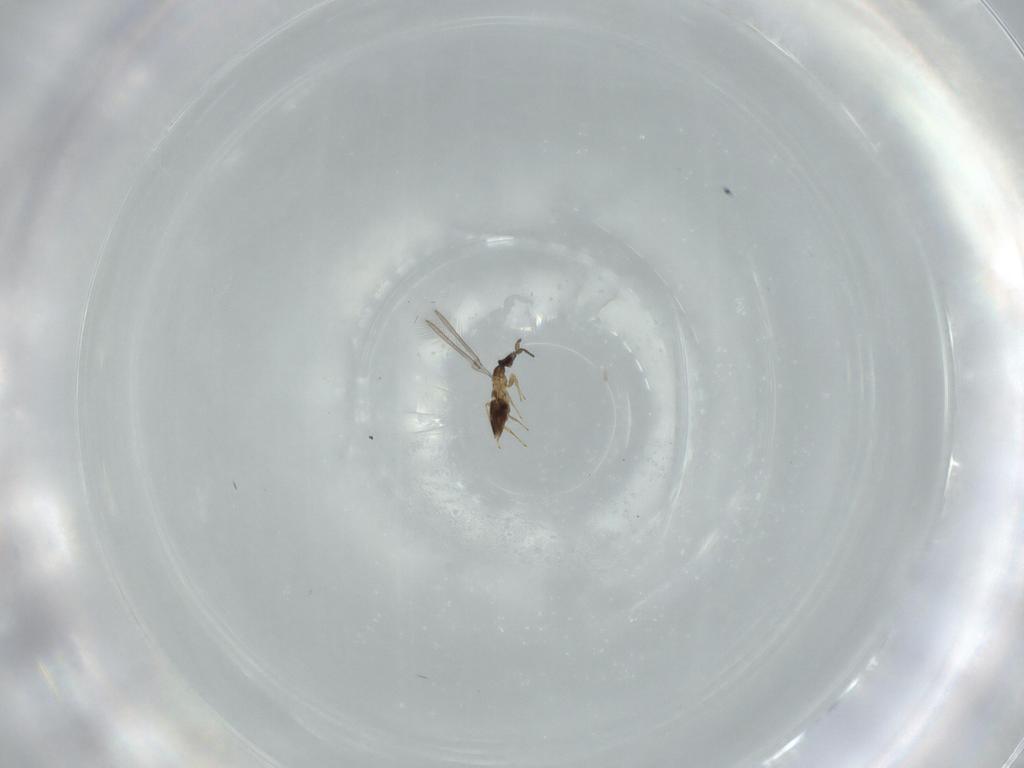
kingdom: Animalia
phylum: Arthropoda
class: Insecta
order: Hymenoptera
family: Mymaridae
